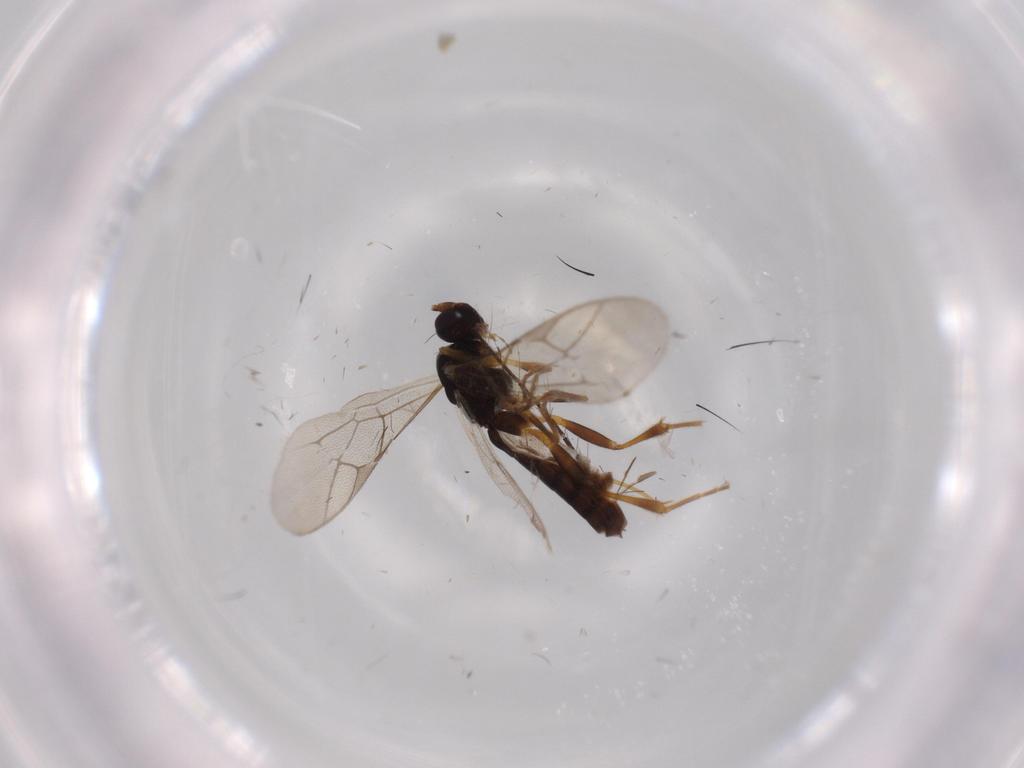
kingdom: Animalia
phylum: Arthropoda
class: Insecta
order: Hymenoptera
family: Ichneumonidae
